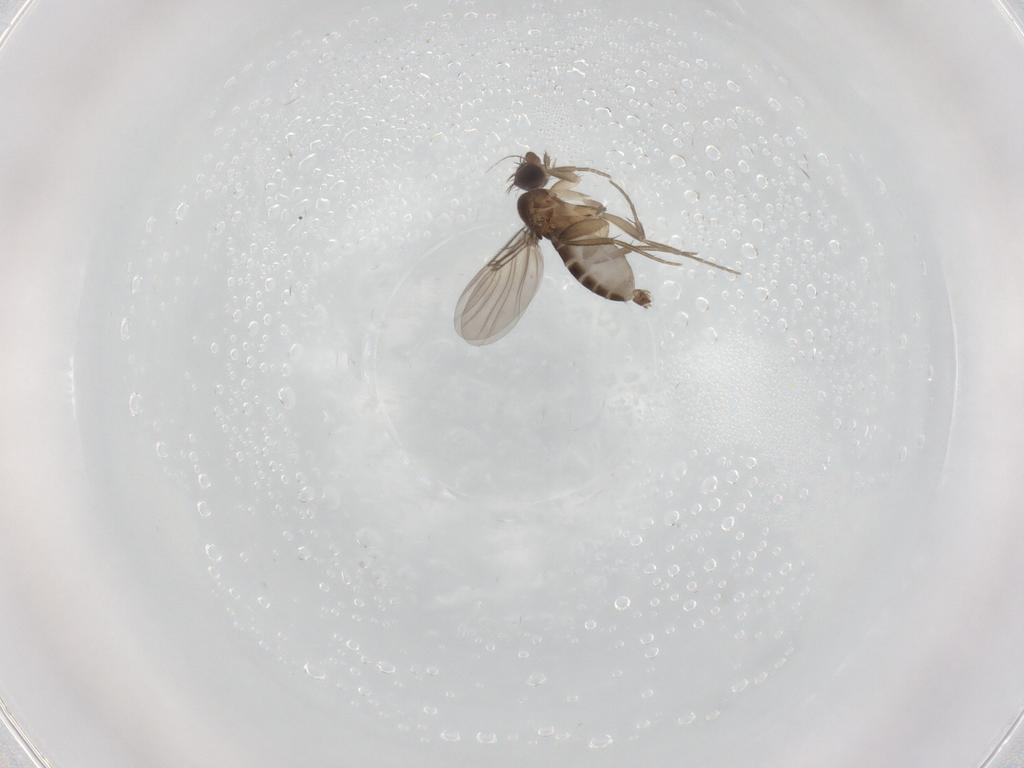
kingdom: Animalia
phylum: Arthropoda
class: Insecta
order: Diptera
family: Phoridae
